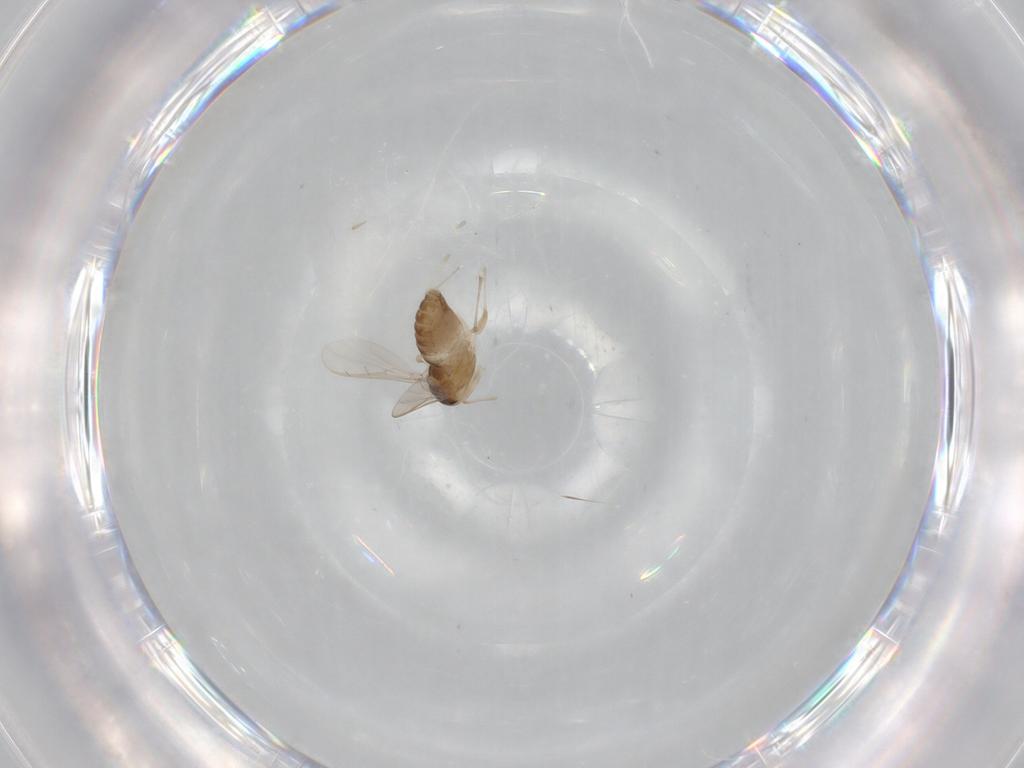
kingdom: Animalia
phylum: Arthropoda
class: Insecta
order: Diptera
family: Chironomidae
